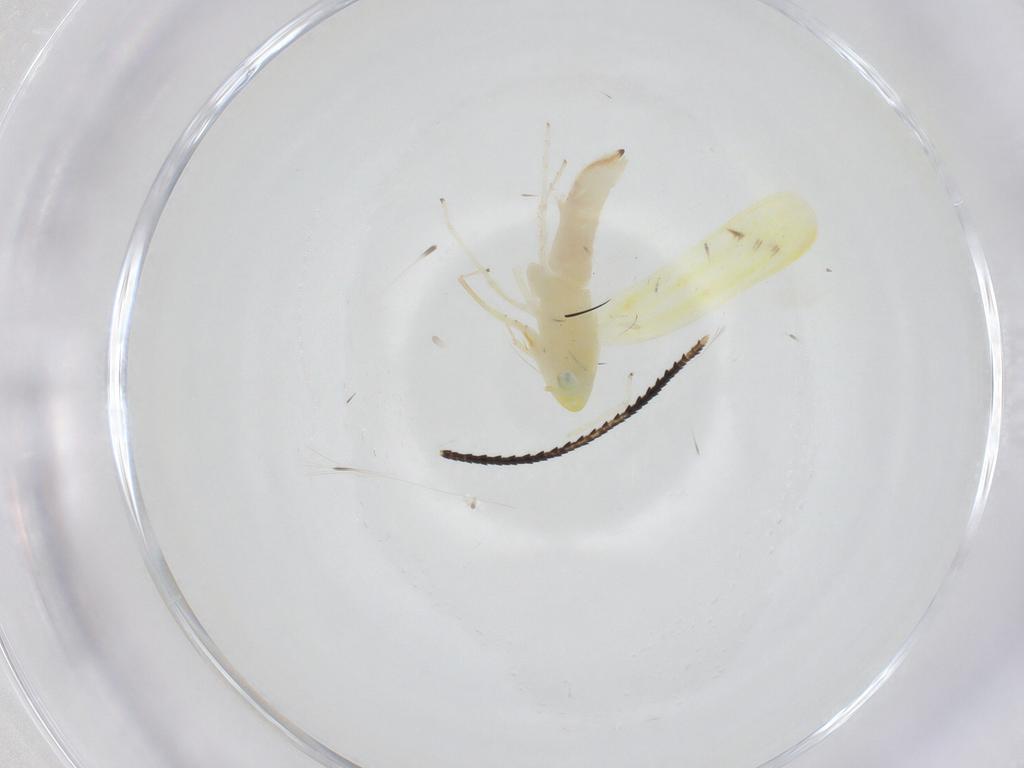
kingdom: Animalia
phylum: Arthropoda
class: Insecta
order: Hemiptera
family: Cicadellidae
